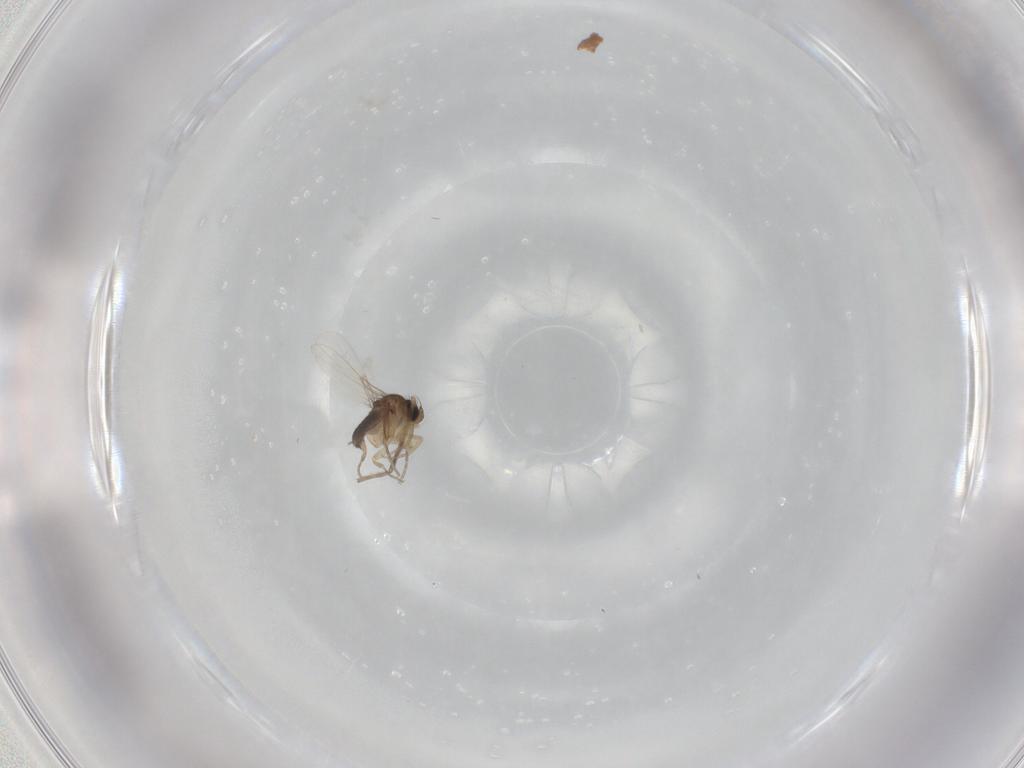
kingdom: Animalia
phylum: Arthropoda
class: Insecta
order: Diptera
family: Phoridae
